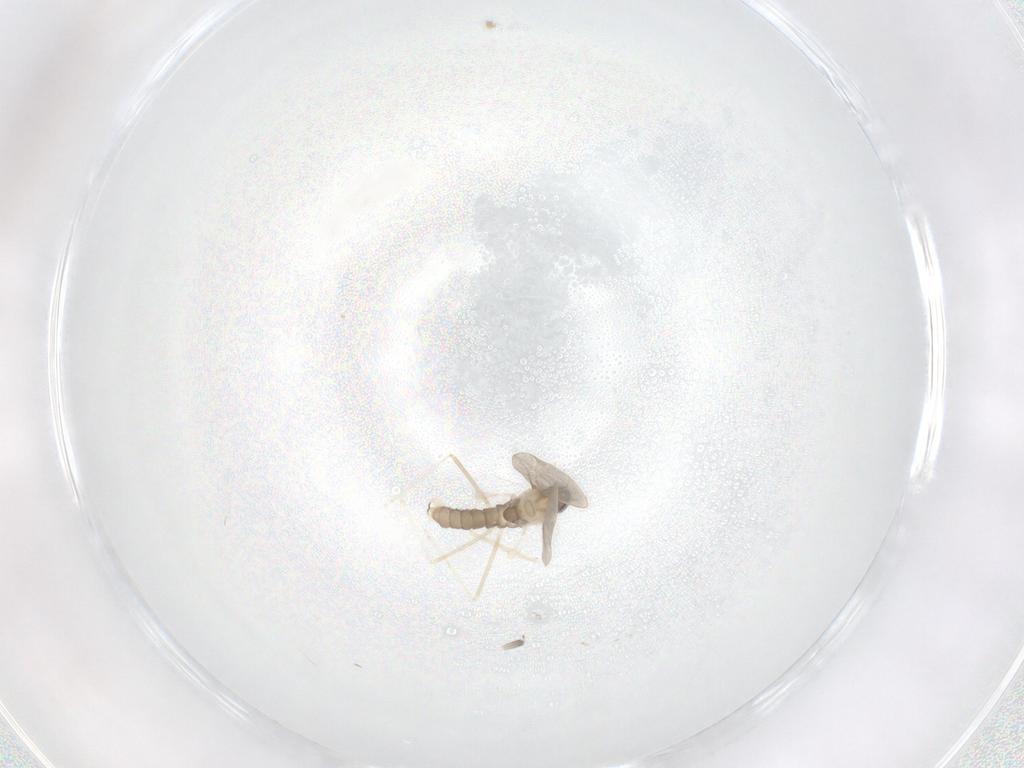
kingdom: Animalia
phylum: Arthropoda
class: Insecta
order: Diptera
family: Cecidomyiidae
